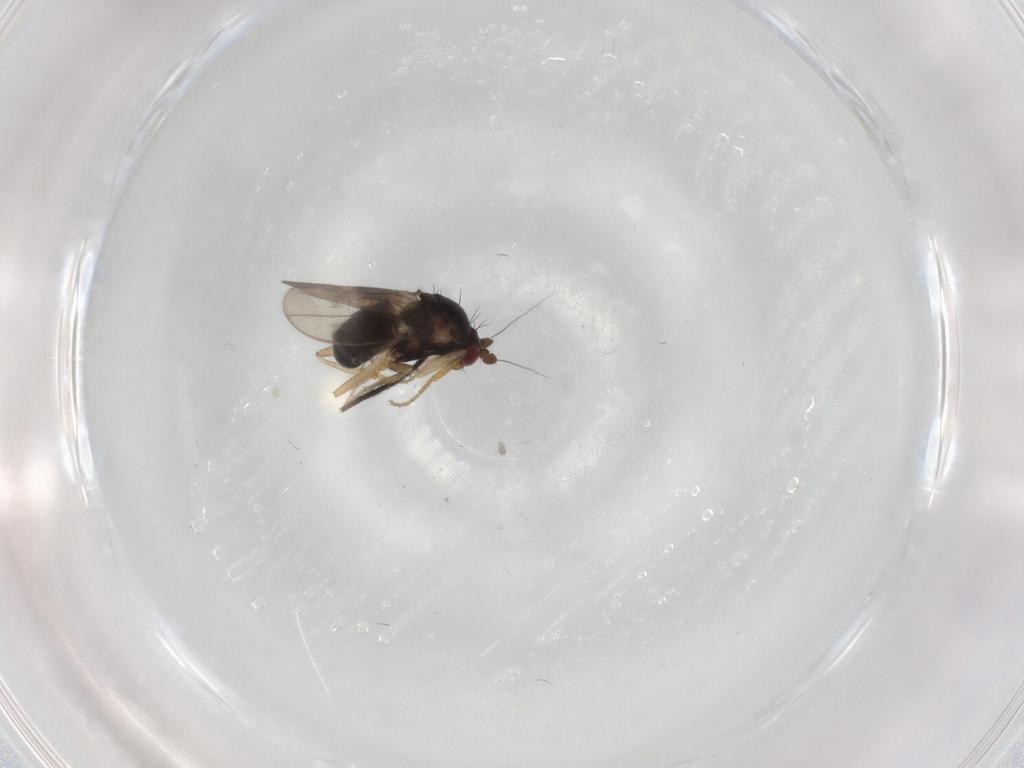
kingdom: Animalia
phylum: Arthropoda
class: Insecta
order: Diptera
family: Sphaeroceridae
